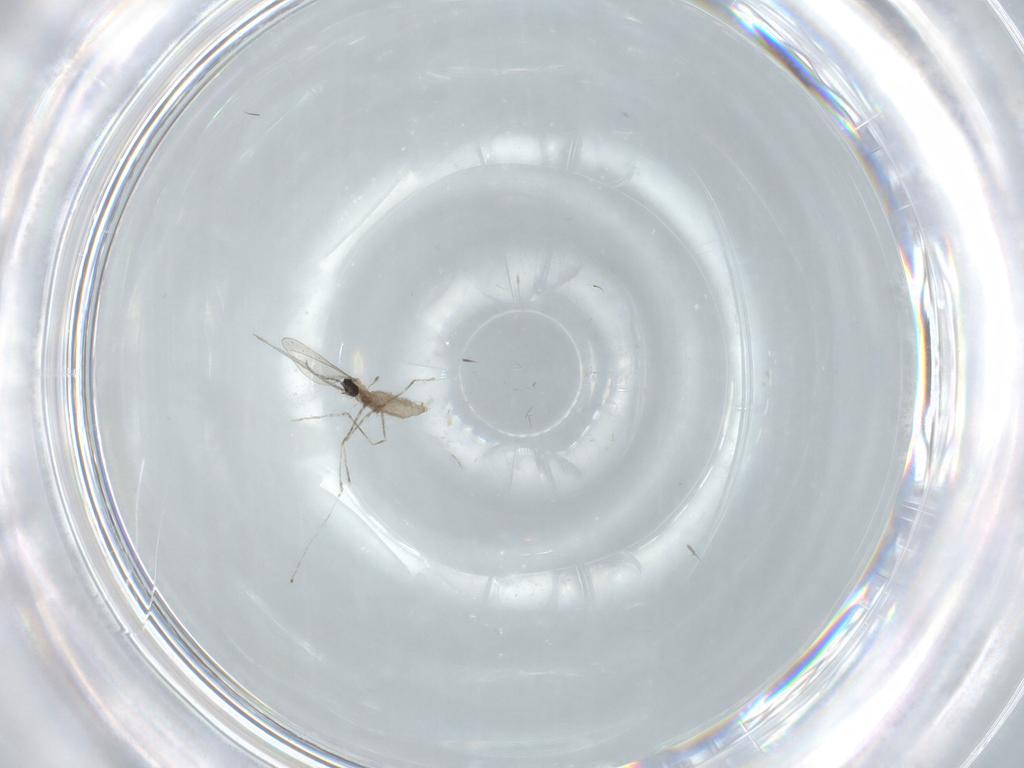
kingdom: Animalia
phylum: Arthropoda
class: Insecta
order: Diptera
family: Cecidomyiidae
